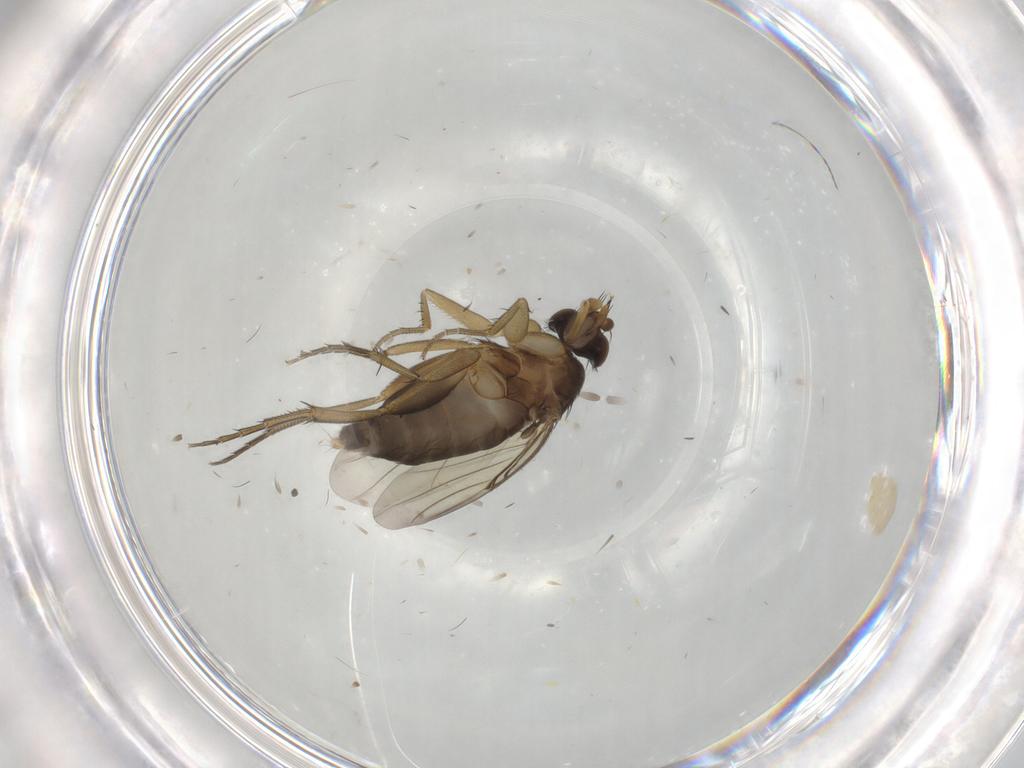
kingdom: Animalia
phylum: Arthropoda
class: Insecta
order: Diptera
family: Phoridae
